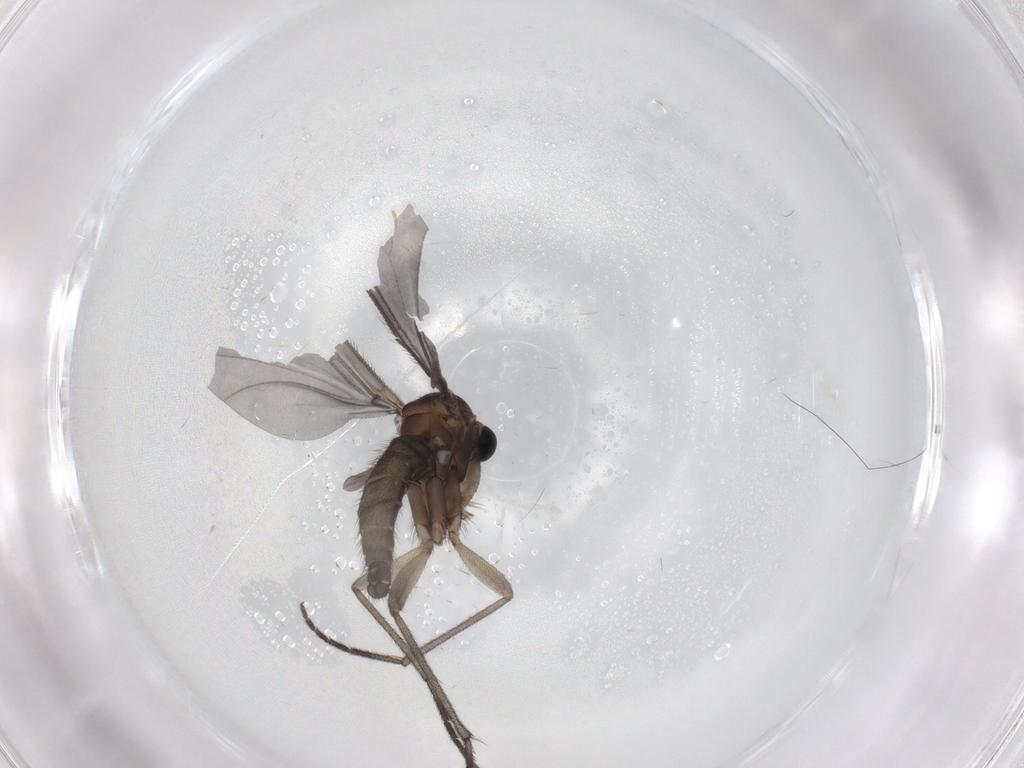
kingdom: Animalia
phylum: Arthropoda
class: Insecta
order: Diptera
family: Sciaridae
